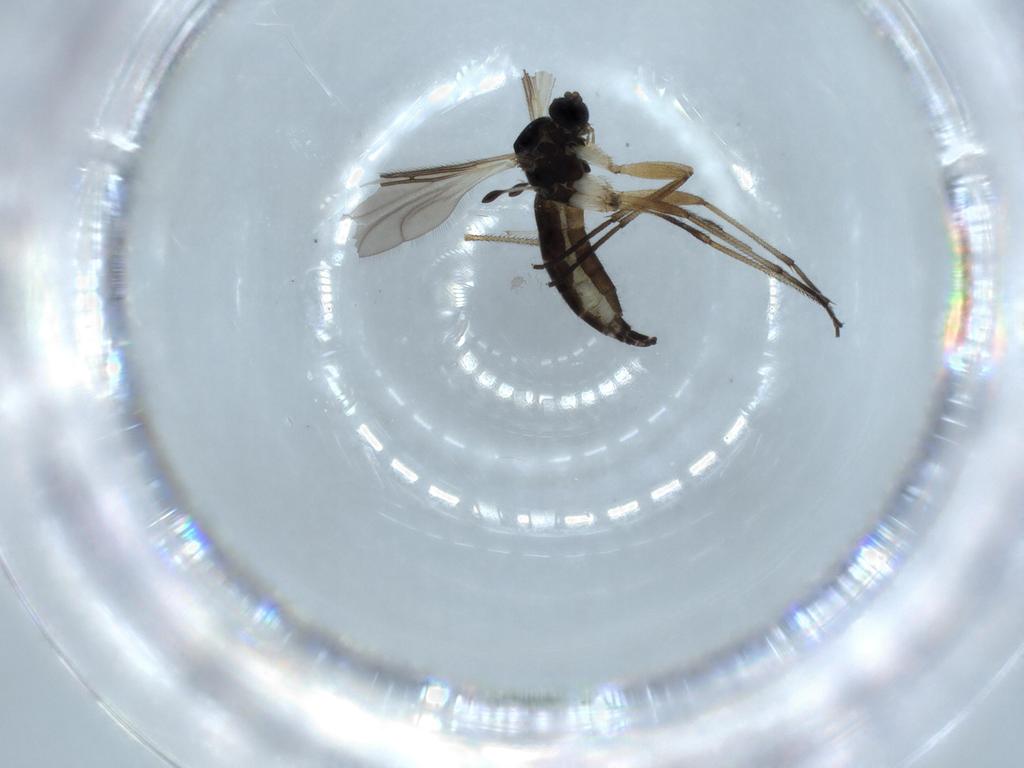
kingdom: Animalia
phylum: Arthropoda
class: Insecta
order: Diptera
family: Sciaridae
